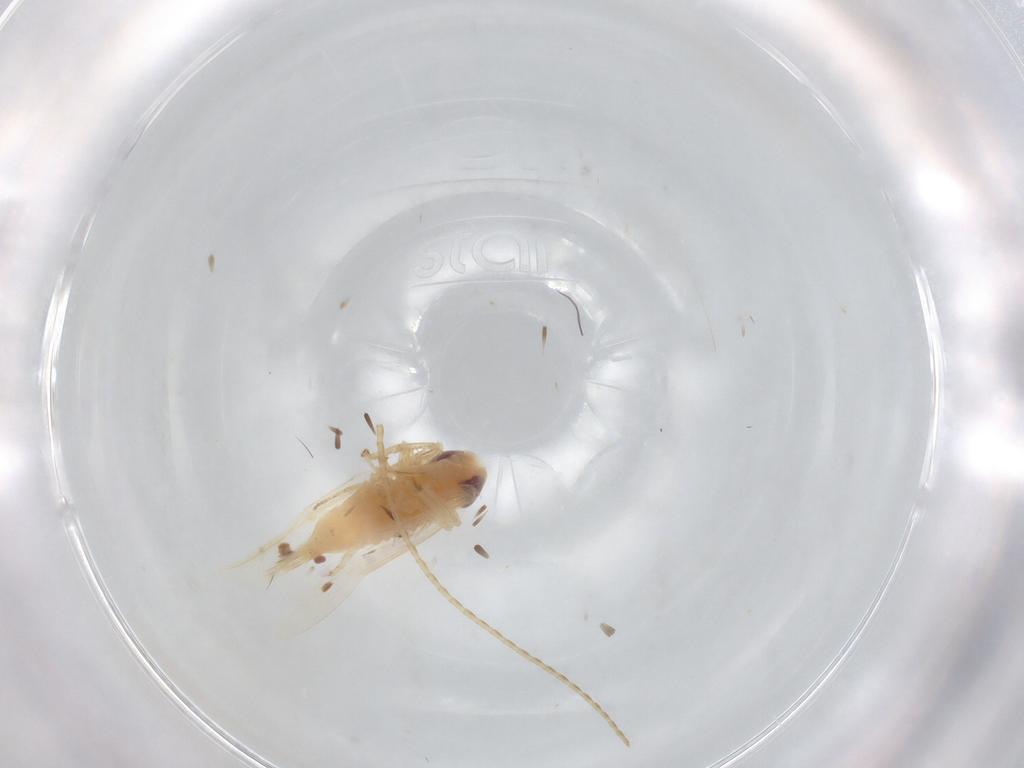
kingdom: Animalia
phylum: Arthropoda
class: Insecta
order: Hemiptera
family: Cicadellidae
